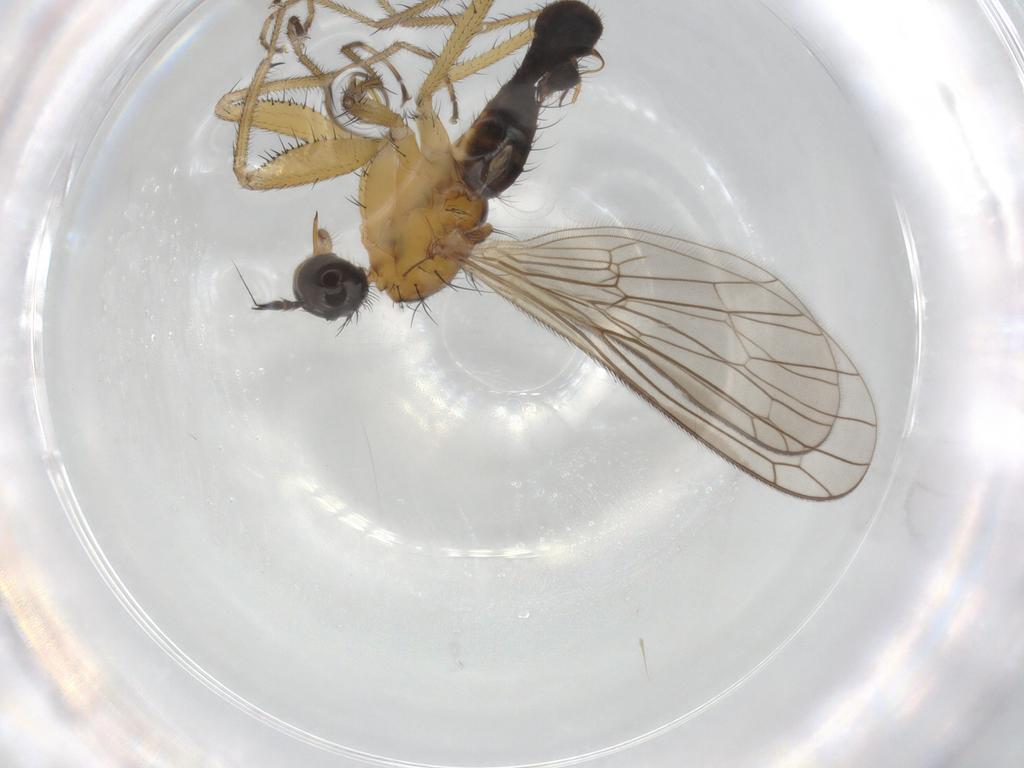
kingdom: Animalia
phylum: Arthropoda
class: Insecta
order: Diptera
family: Empididae
